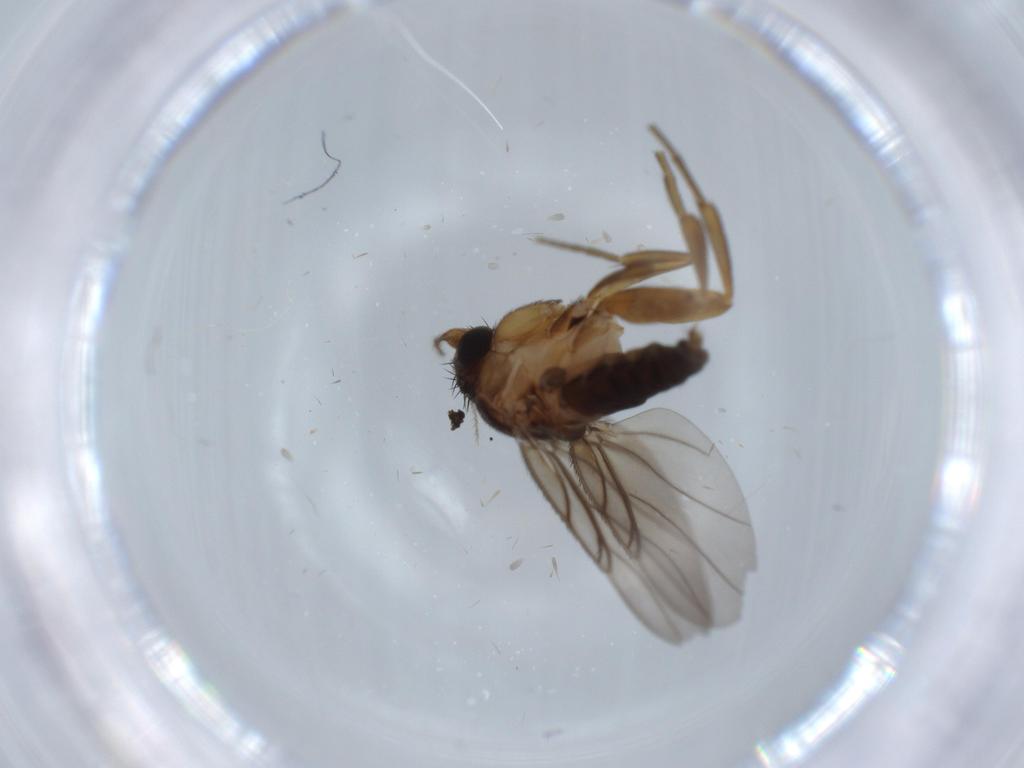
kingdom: Animalia
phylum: Arthropoda
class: Insecta
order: Diptera
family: Milichiidae
